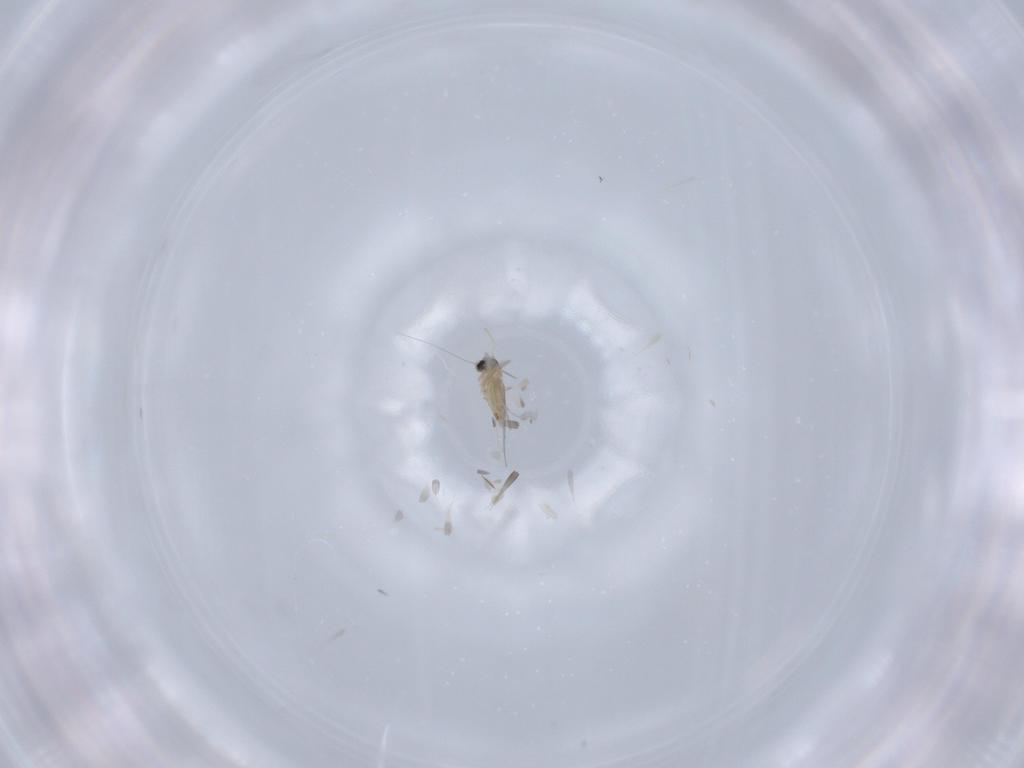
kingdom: Animalia
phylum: Arthropoda
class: Insecta
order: Diptera
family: Cecidomyiidae
